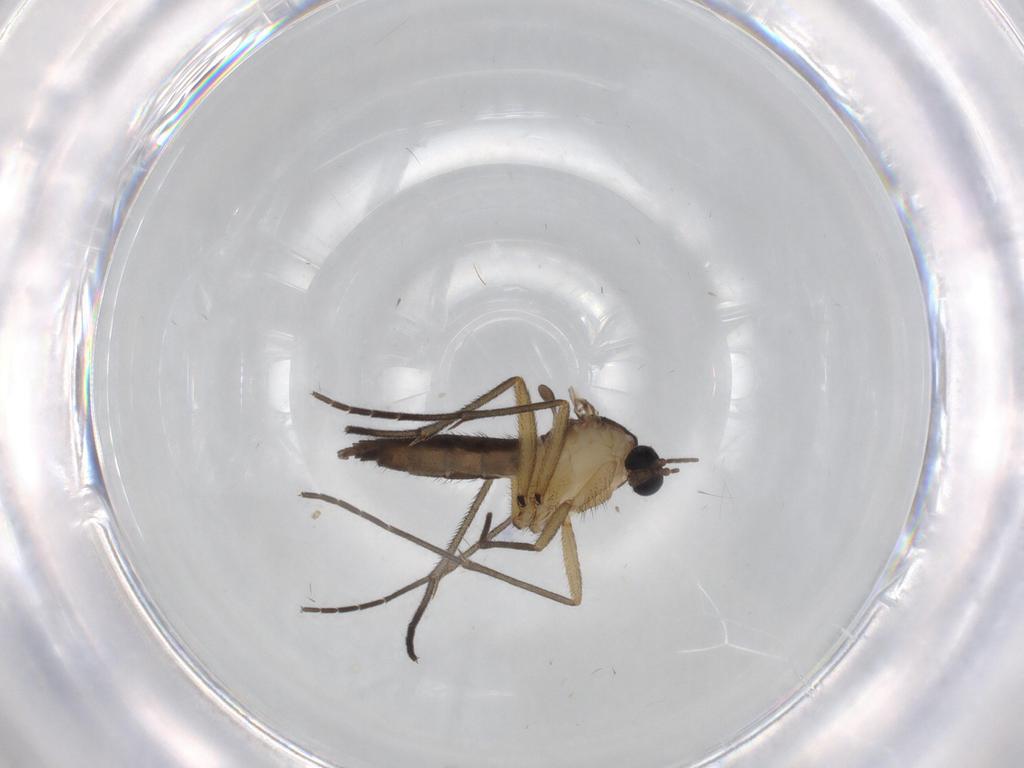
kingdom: Animalia
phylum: Arthropoda
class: Insecta
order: Diptera
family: Sciaridae
